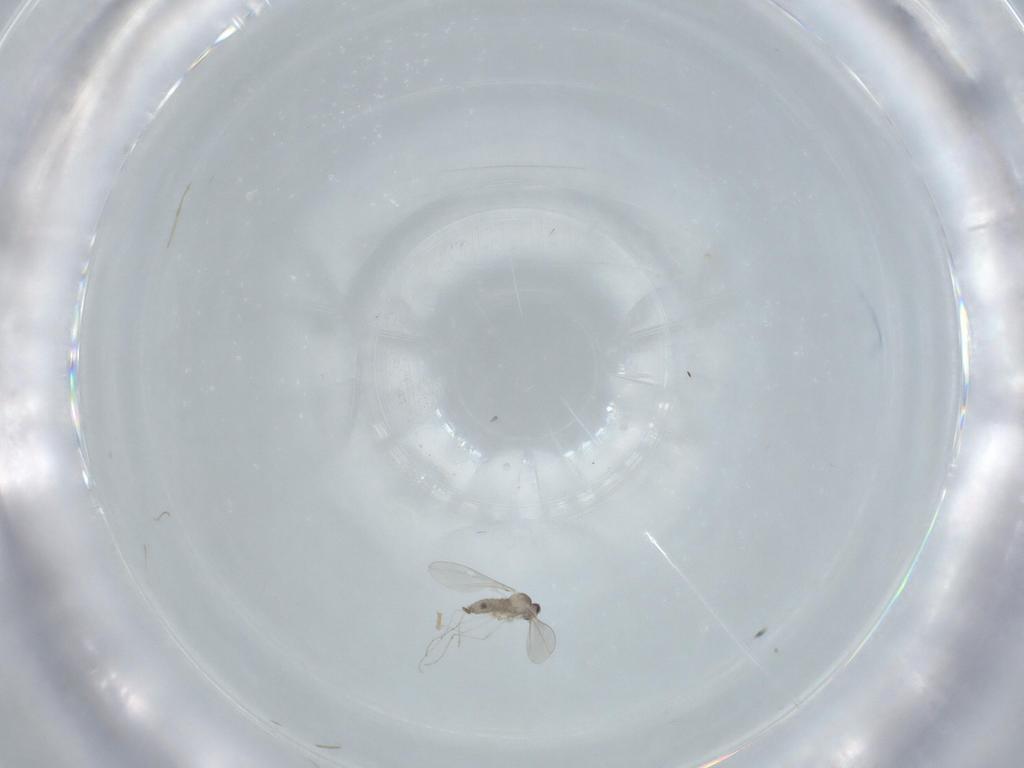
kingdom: Animalia
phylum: Arthropoda
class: Insecta
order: Diptera
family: Cecidomyiidae
